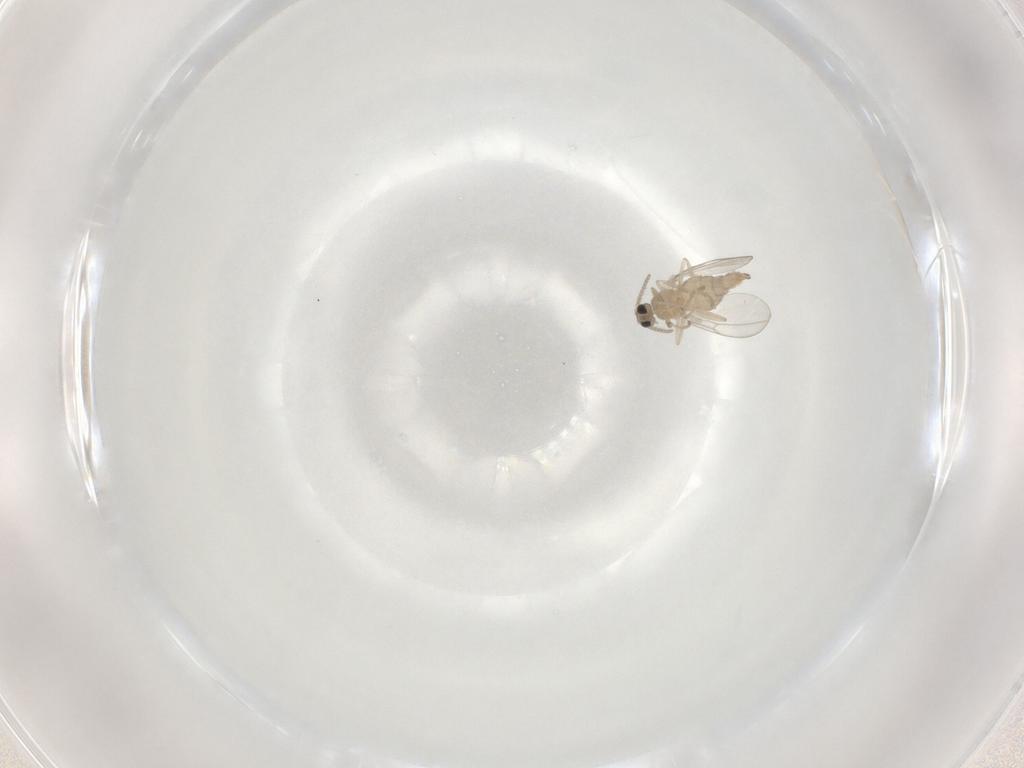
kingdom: Animalia
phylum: Arthropoda
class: Insecta
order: Diptera
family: Cecidomyiidae
